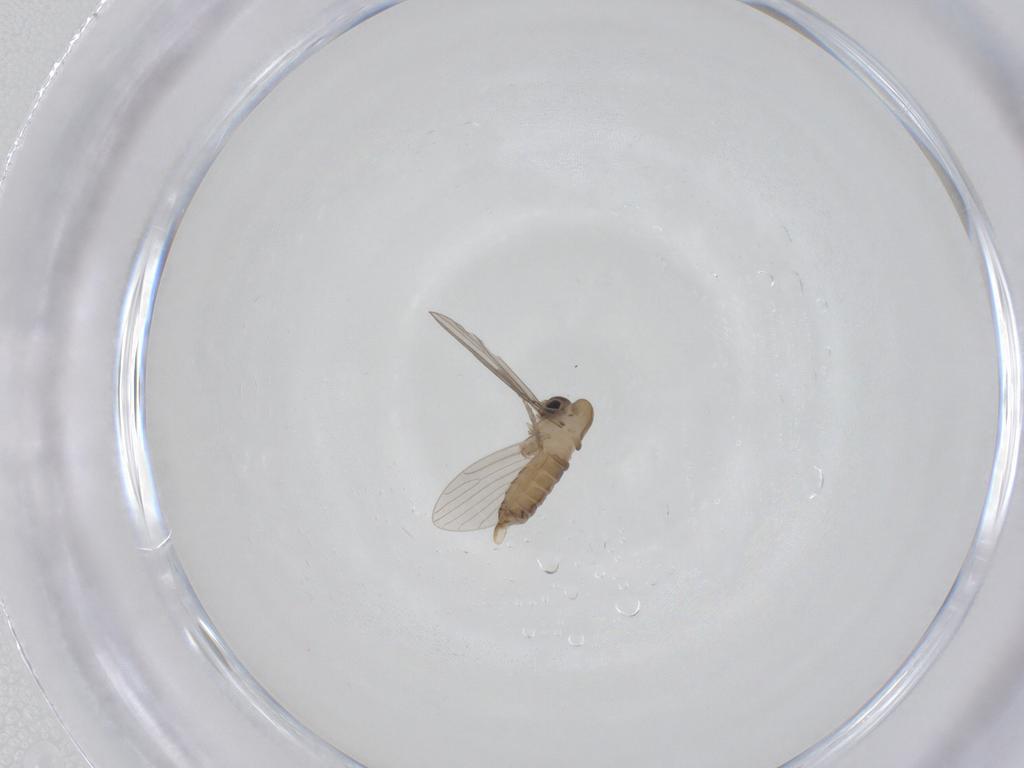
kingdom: Animalia
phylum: Arthropoda
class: Insecta
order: Diptera
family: Psychodidae
